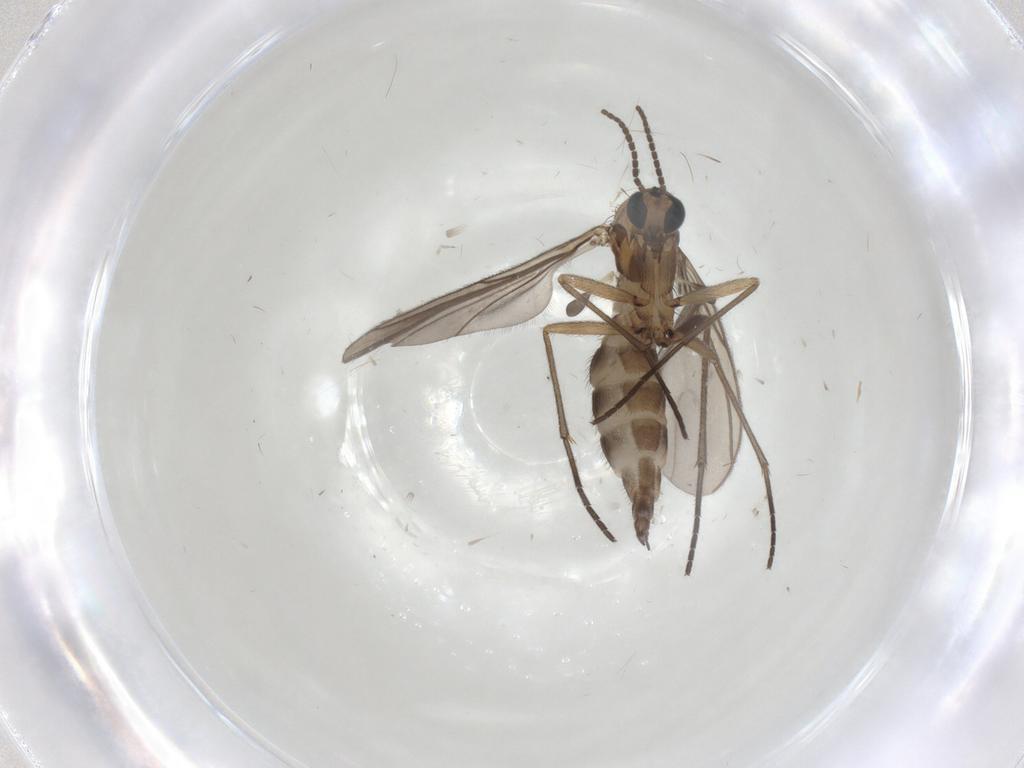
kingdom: Animalia
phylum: Arthropoda
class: Insecta
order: Diptera
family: Sciaridae
